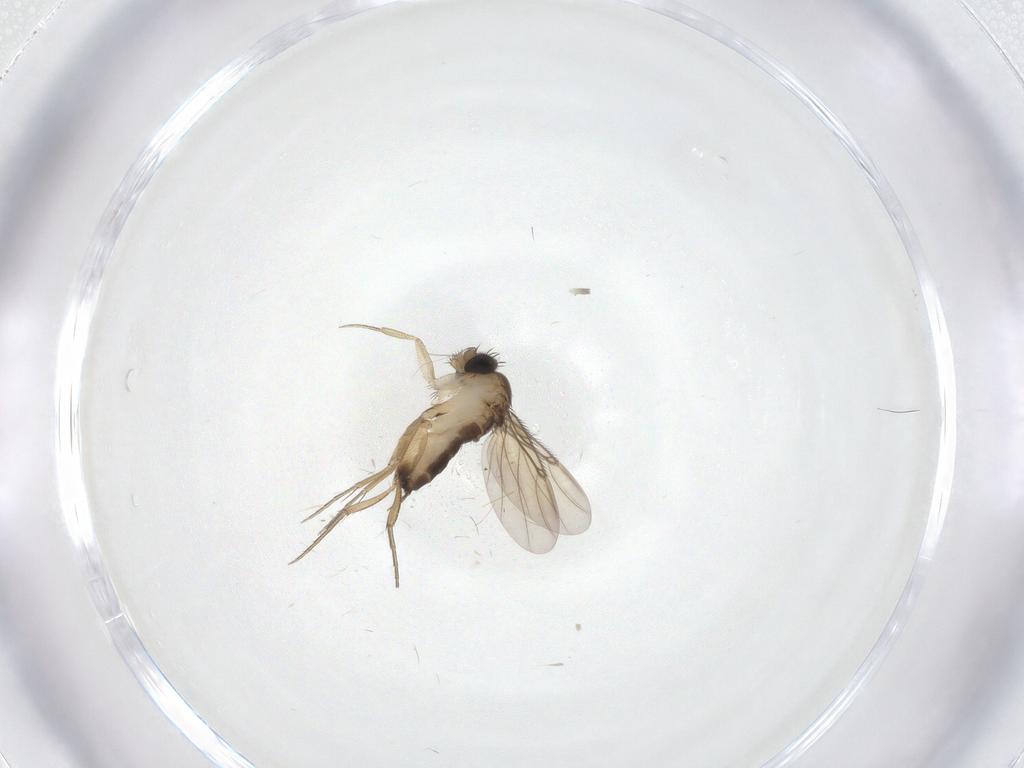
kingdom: Animalia
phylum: Arthropoda
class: Insecta
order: Diptera
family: Phoridae
